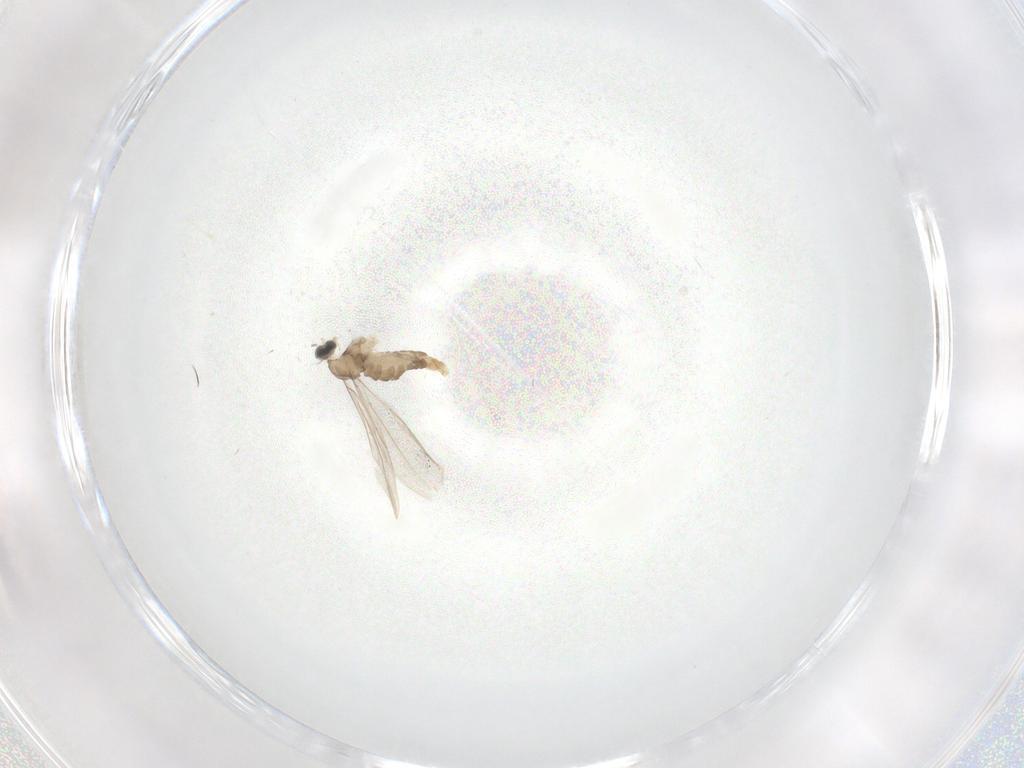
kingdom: Animalia
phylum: Arthropoda
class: Insecta
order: Diptera
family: Cecidomyiidae
